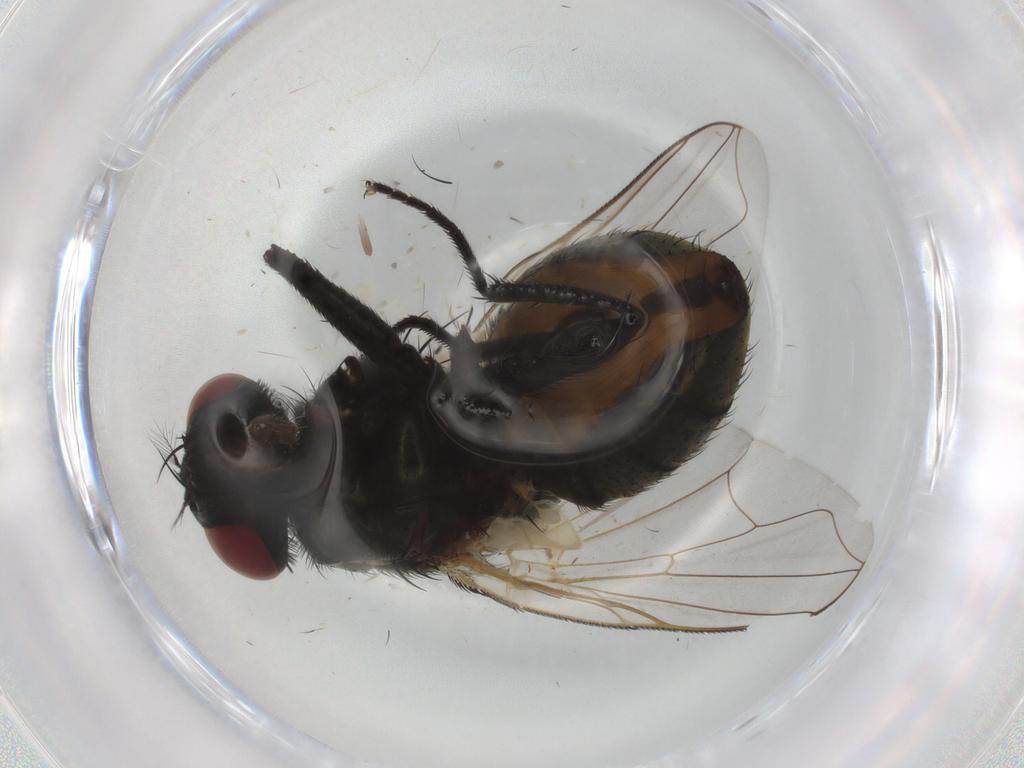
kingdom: Animalia
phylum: Arthropoda
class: Insecta
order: Diptera
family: Muscidae
